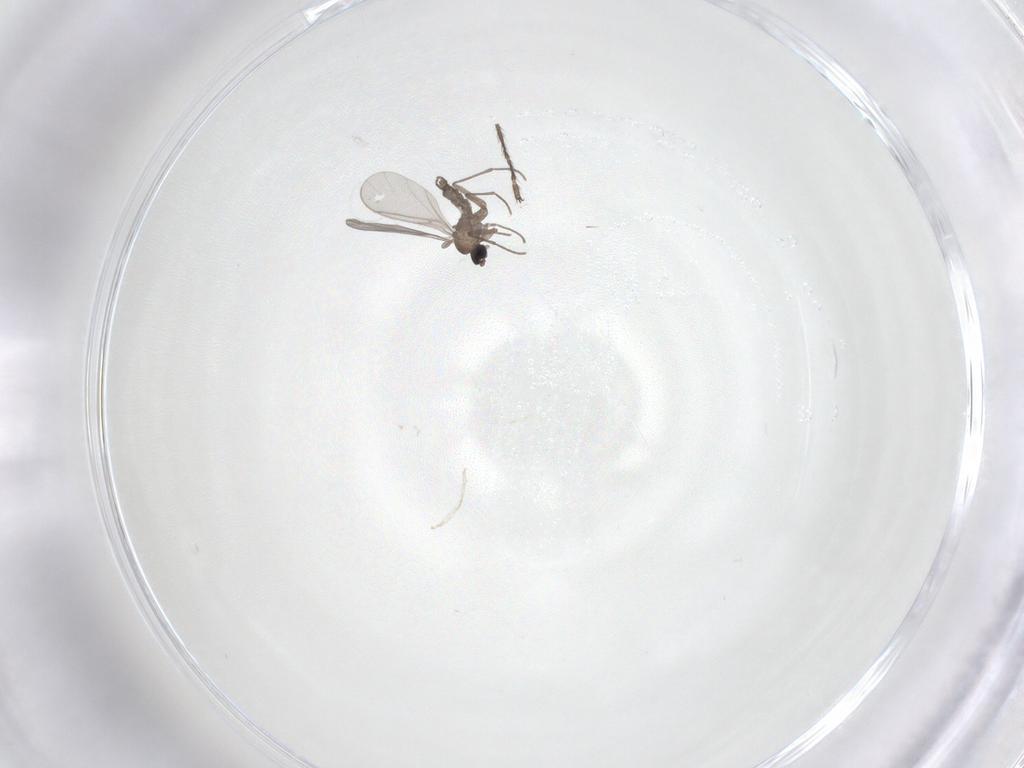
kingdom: Animalia
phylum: Arthropoda
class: Insecta
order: Diptera
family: Sciaridae
